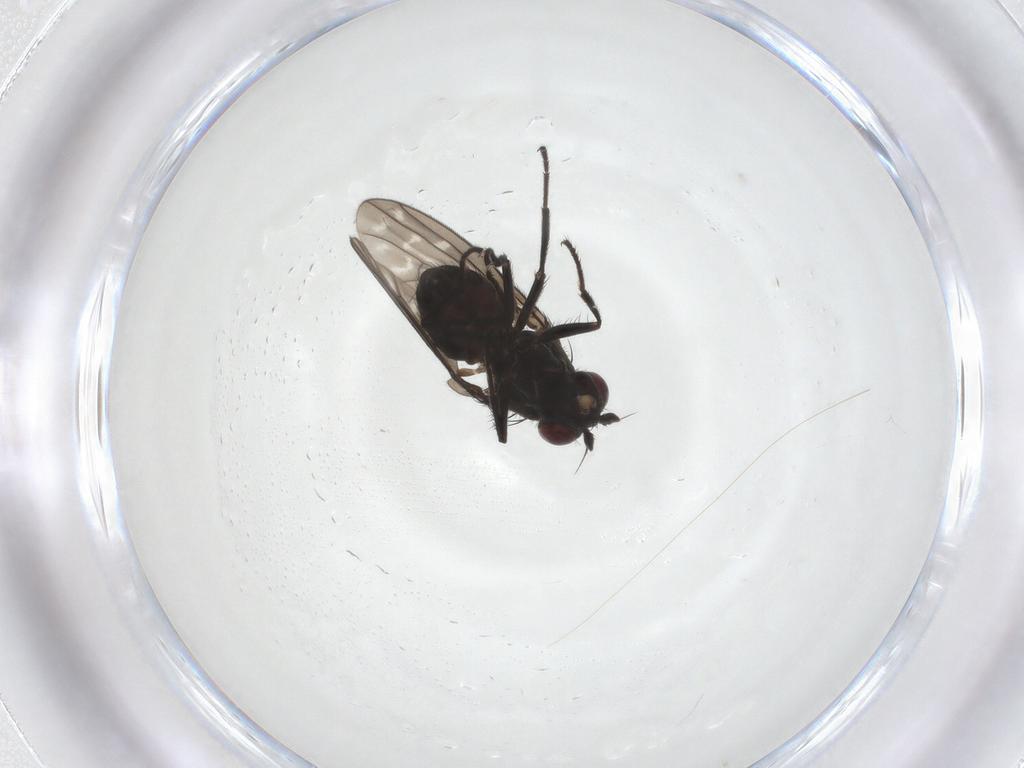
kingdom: Animalia
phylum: Arthropoda
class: Insecta
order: Diptera
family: Ephydridae
